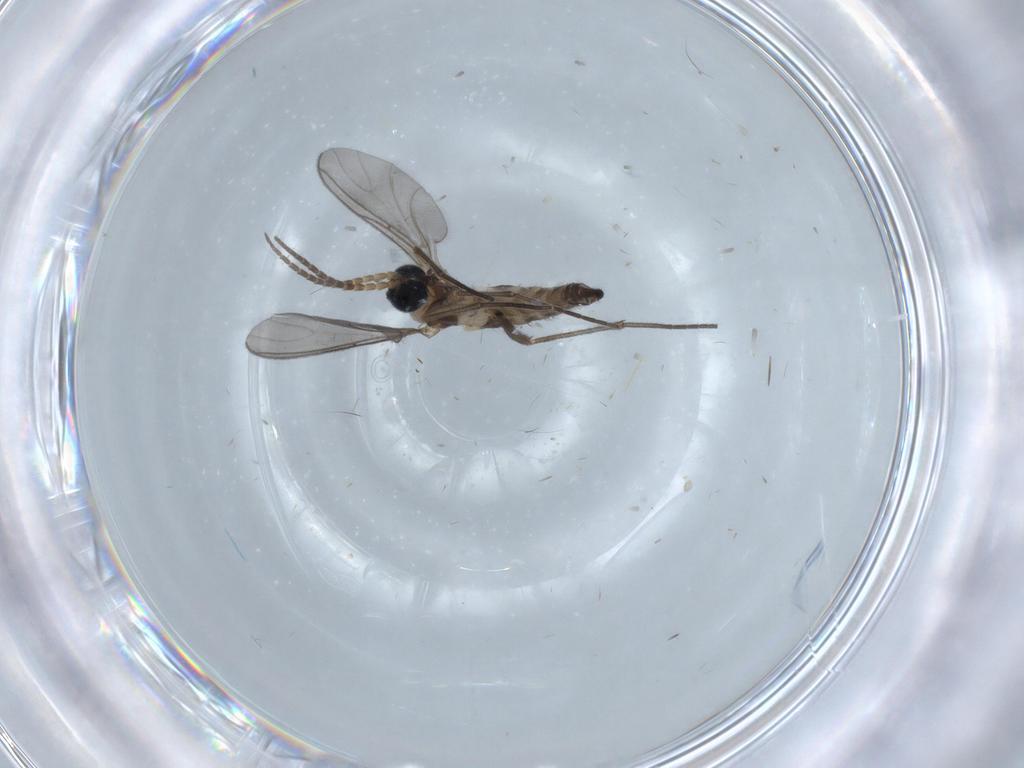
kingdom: Animalia
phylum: Arthropoda
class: Insecta
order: Diptera
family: Sciaridae
